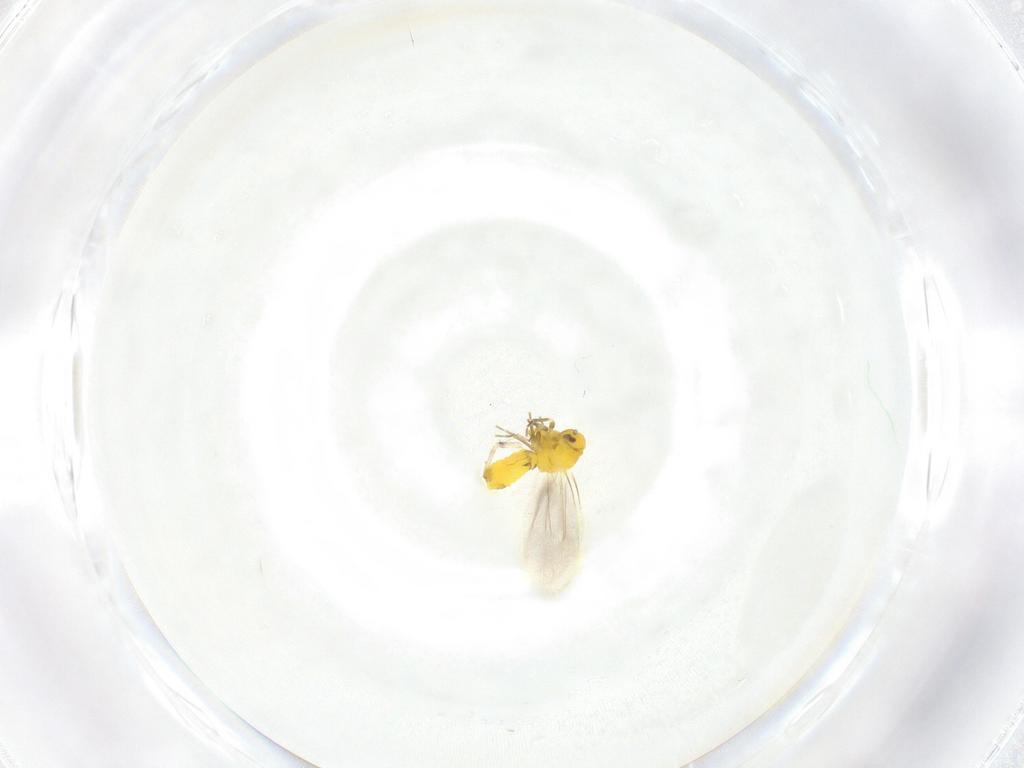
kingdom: Animalia
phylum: Arthropoda
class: Insecta
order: Hemiptera
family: Aleyrodidae
